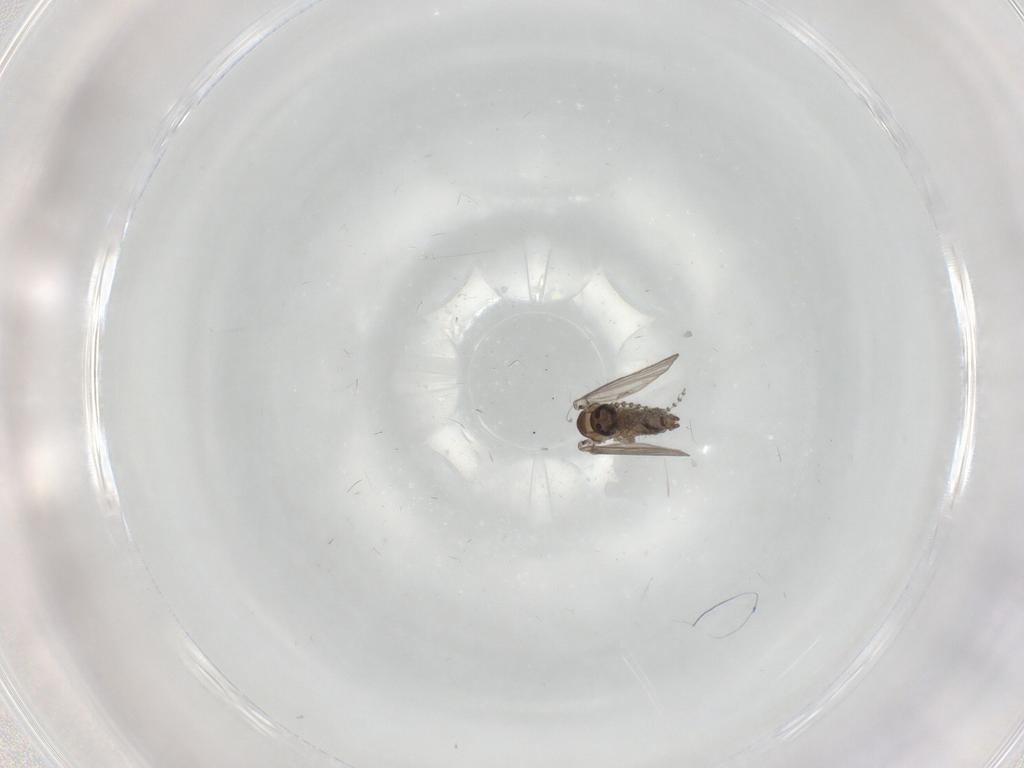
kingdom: Animalia
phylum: Arthropoda
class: Insecta
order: Diptera
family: Psychodidae
